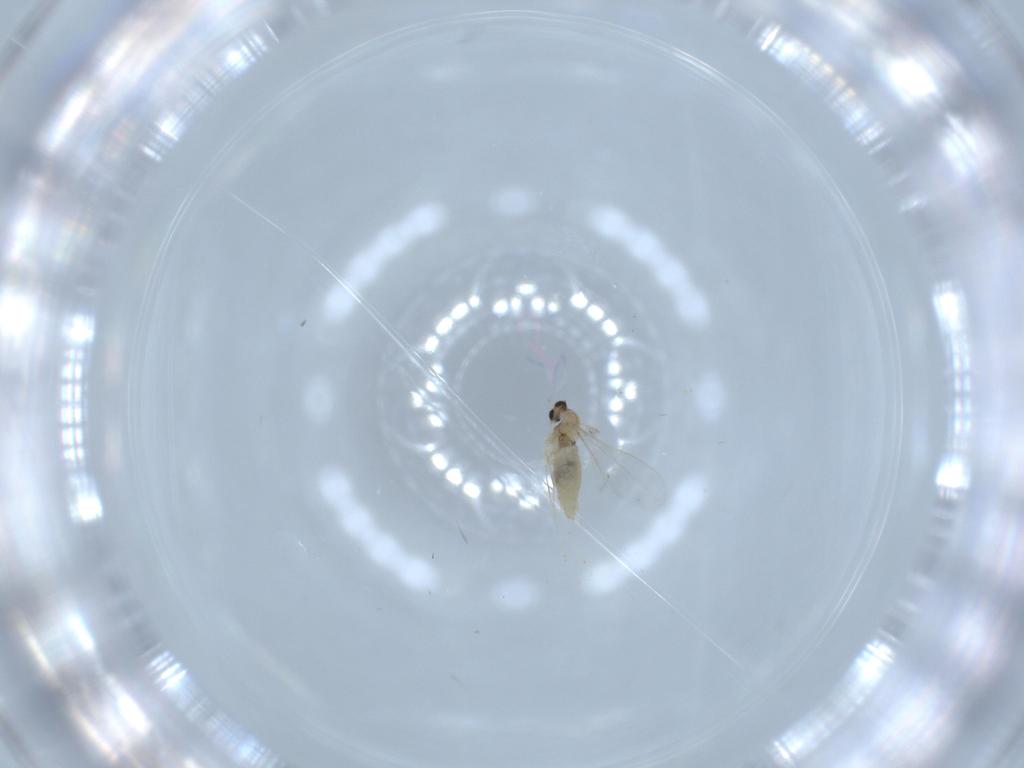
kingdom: Animalia
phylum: Arthropoda
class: Insecta
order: Diptera
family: Cecidomyiidae
